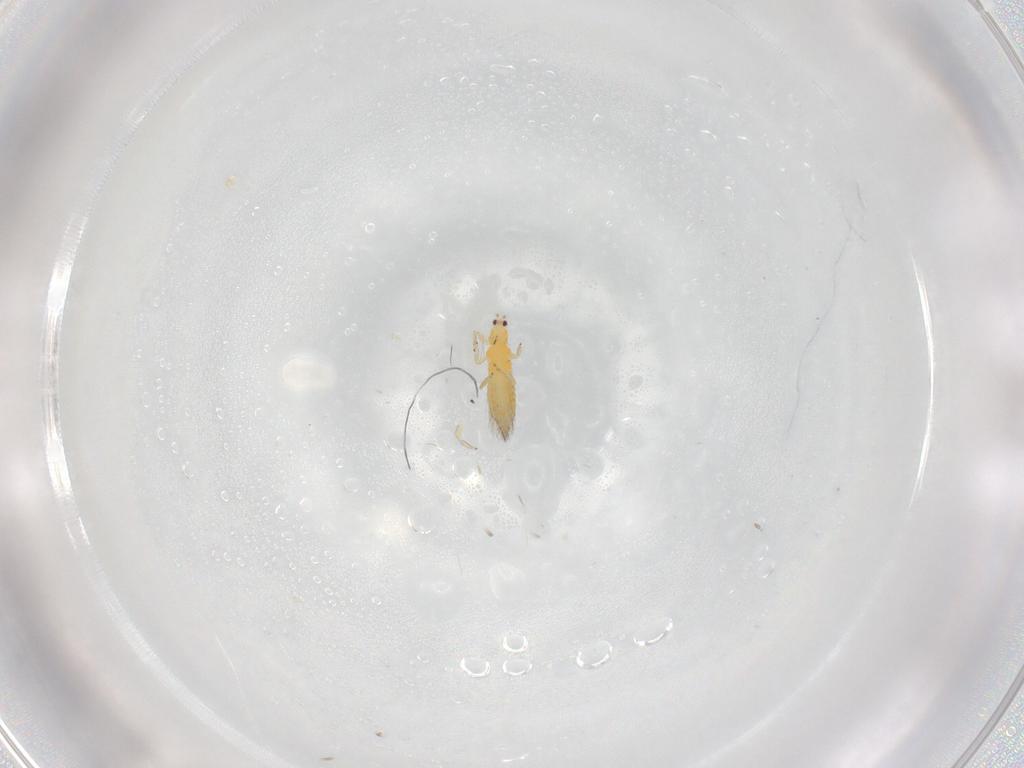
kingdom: Animalia
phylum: Arthropoda
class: Insecta
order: Thysanoptera
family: Thripidae
